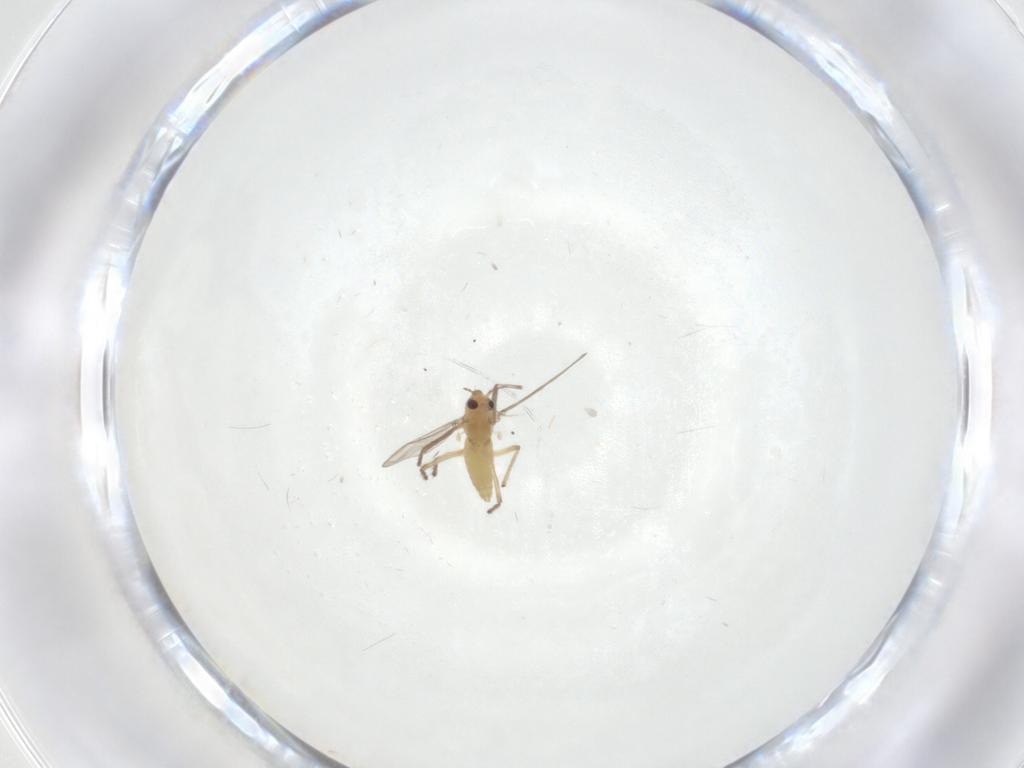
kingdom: Animalia
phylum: Arthropoda
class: Insecta
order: Diptera
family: Chironomidae
